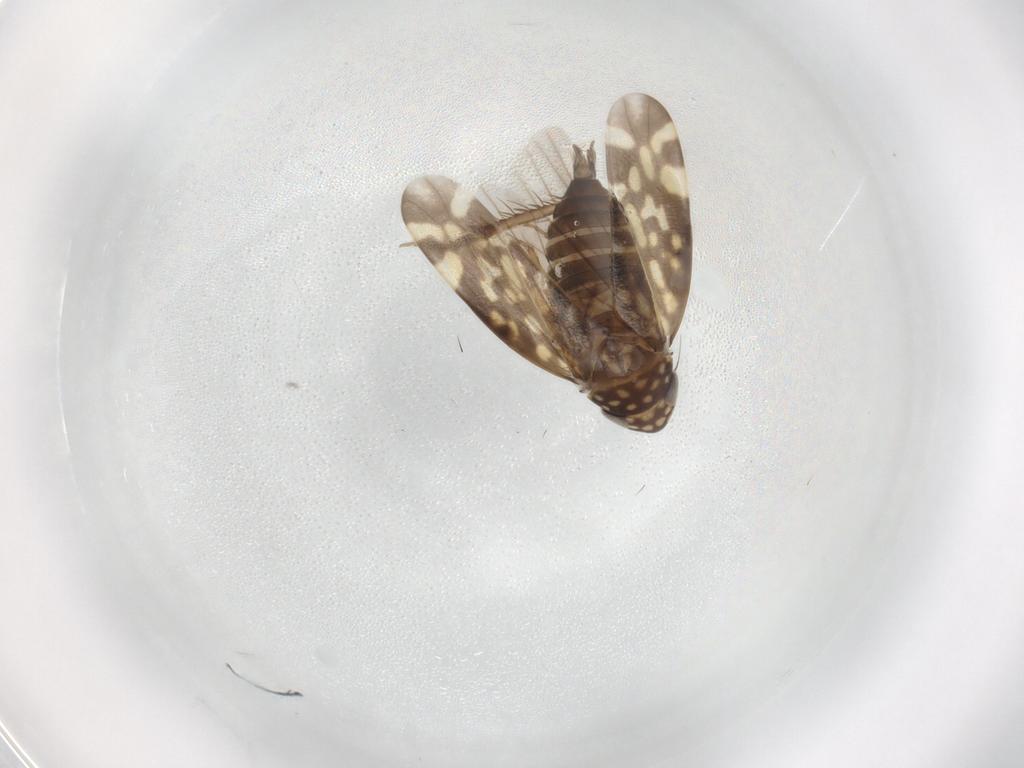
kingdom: Animalia
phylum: Arthropoda
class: Insecta
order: Hemiptera
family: Cicadellidae
